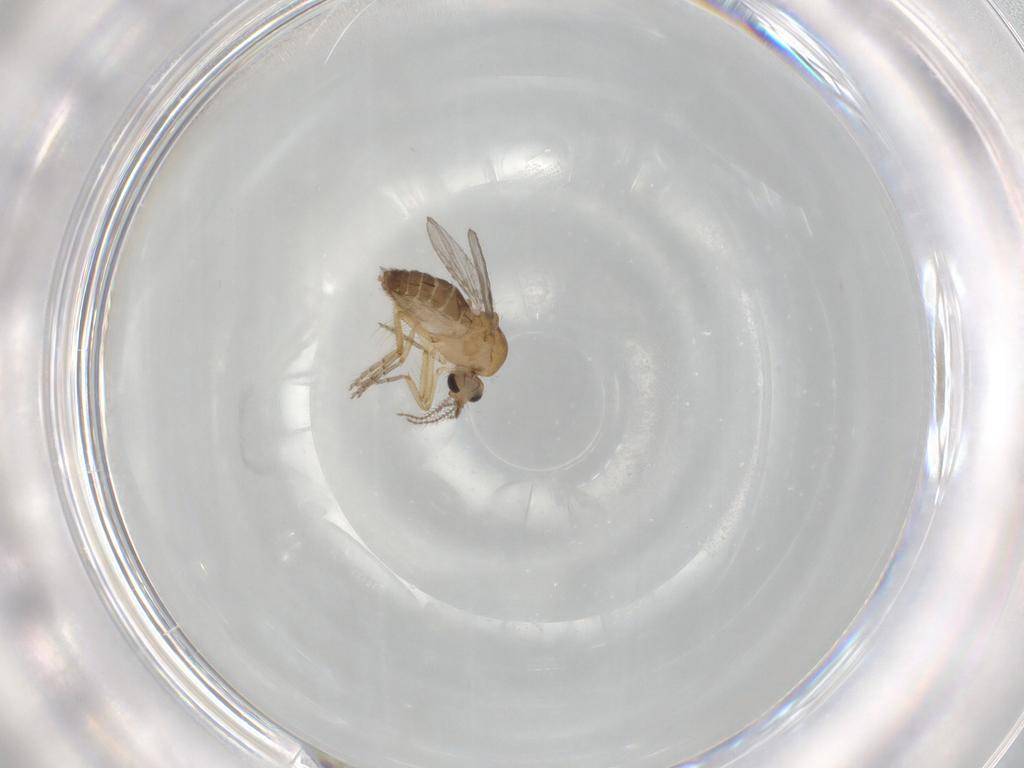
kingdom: Animalia
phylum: Arthropoda
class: Insecta
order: Diptera
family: Ceratopogonidae
